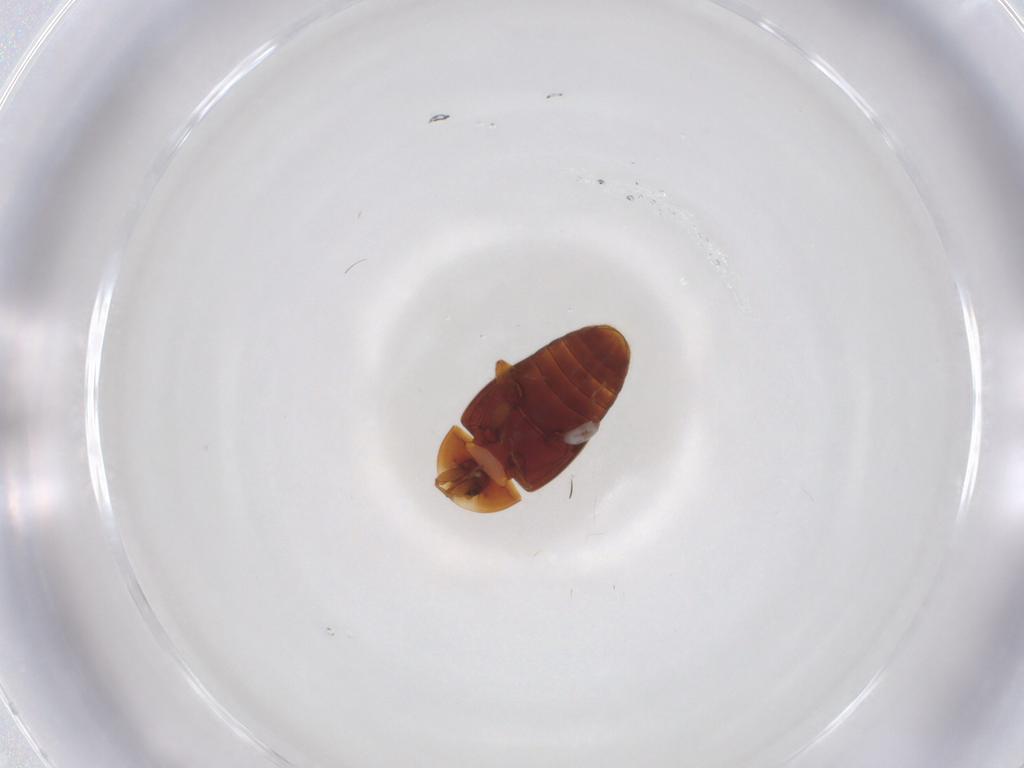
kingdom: Animalia
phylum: Arthropoda
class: Insecta
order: Coleoptera
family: Corylophidae
